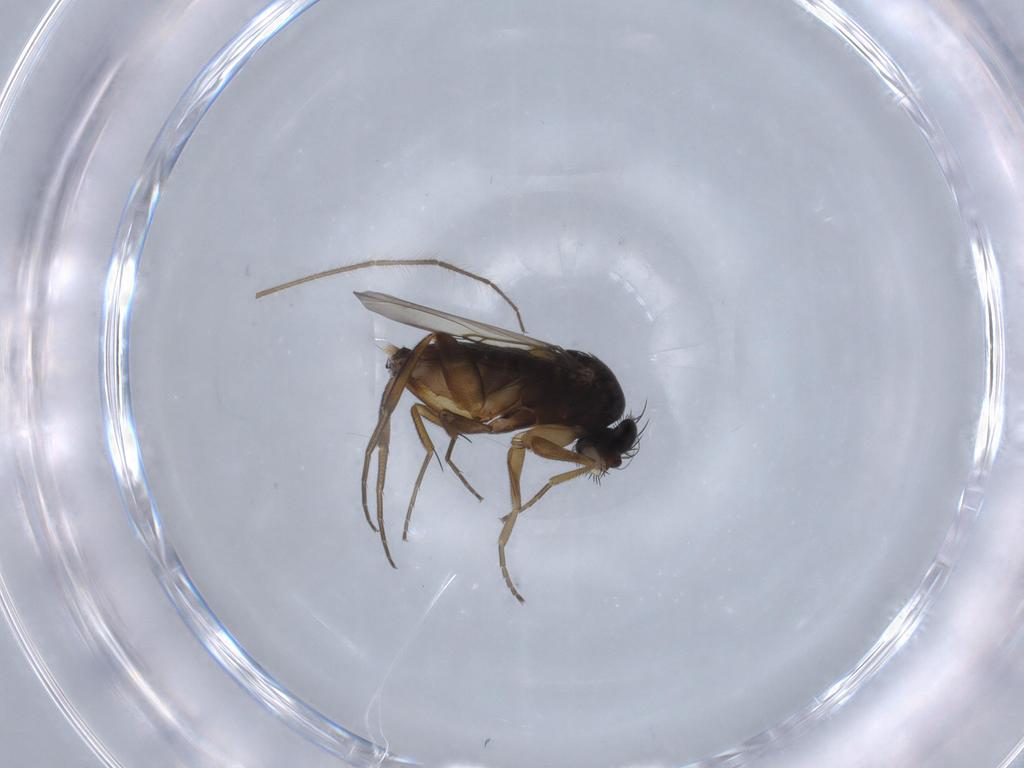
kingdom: Animalia
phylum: Arthropoda
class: Insecta
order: Diptera
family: Phoridae
